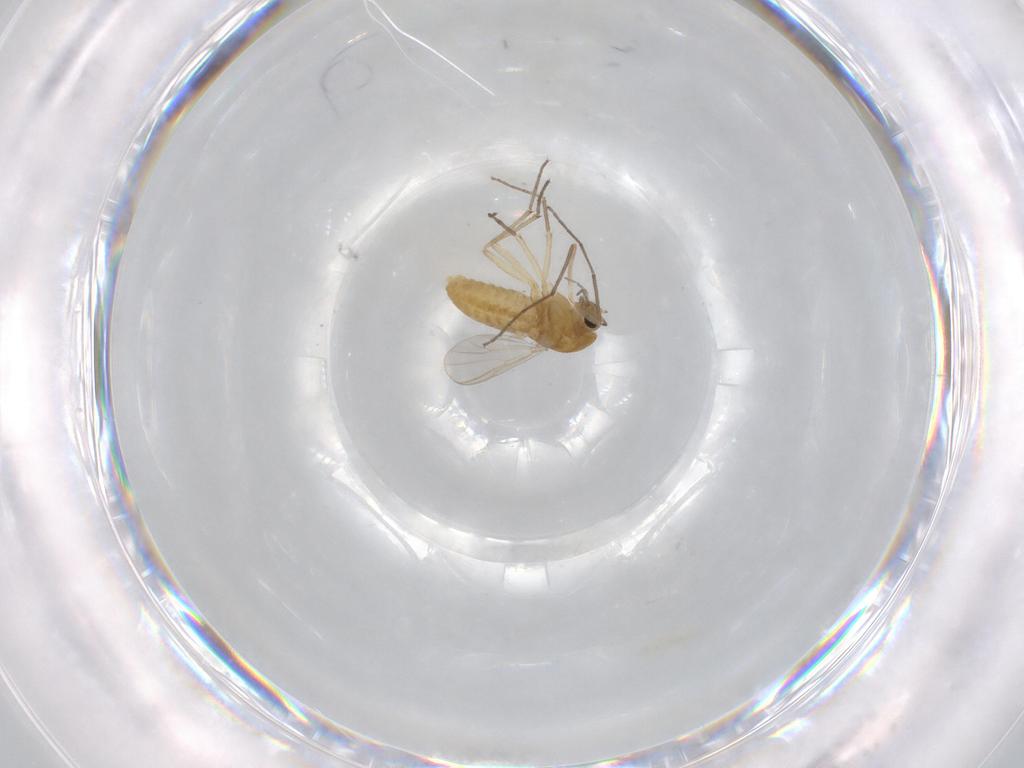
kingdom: Animalia
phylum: Arthropoda
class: Insecta
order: Diptera
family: Chironomidae
